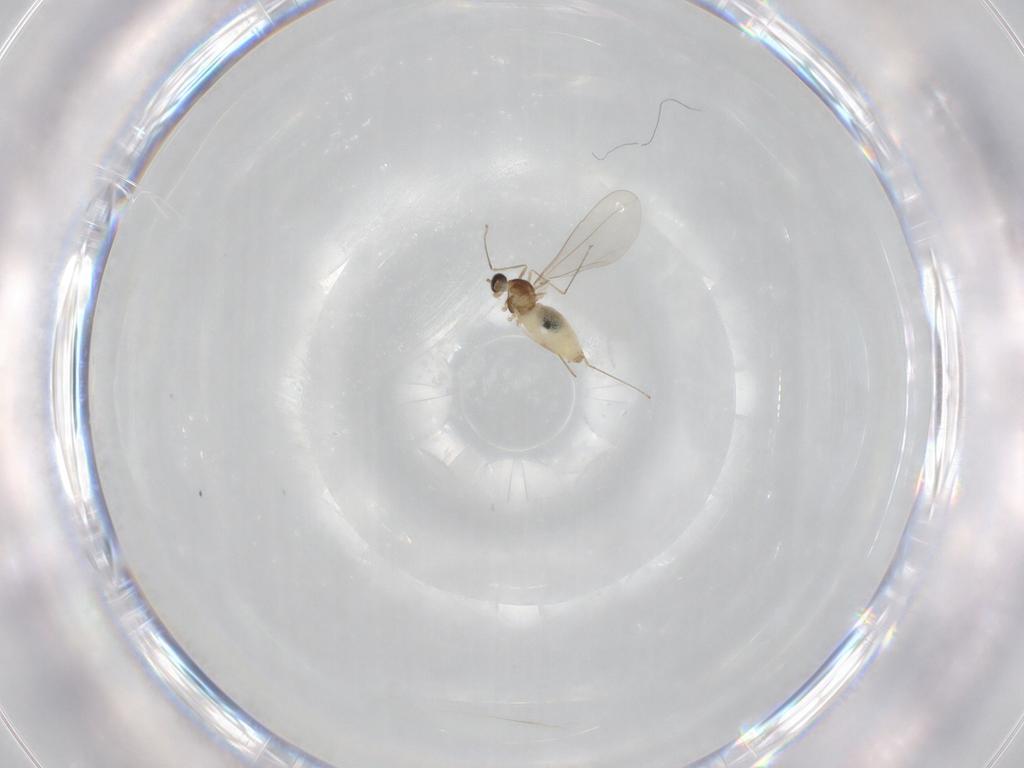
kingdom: Animalia
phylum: Arthropoda
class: Insecta
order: Diptera
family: Cecidomyiidae
